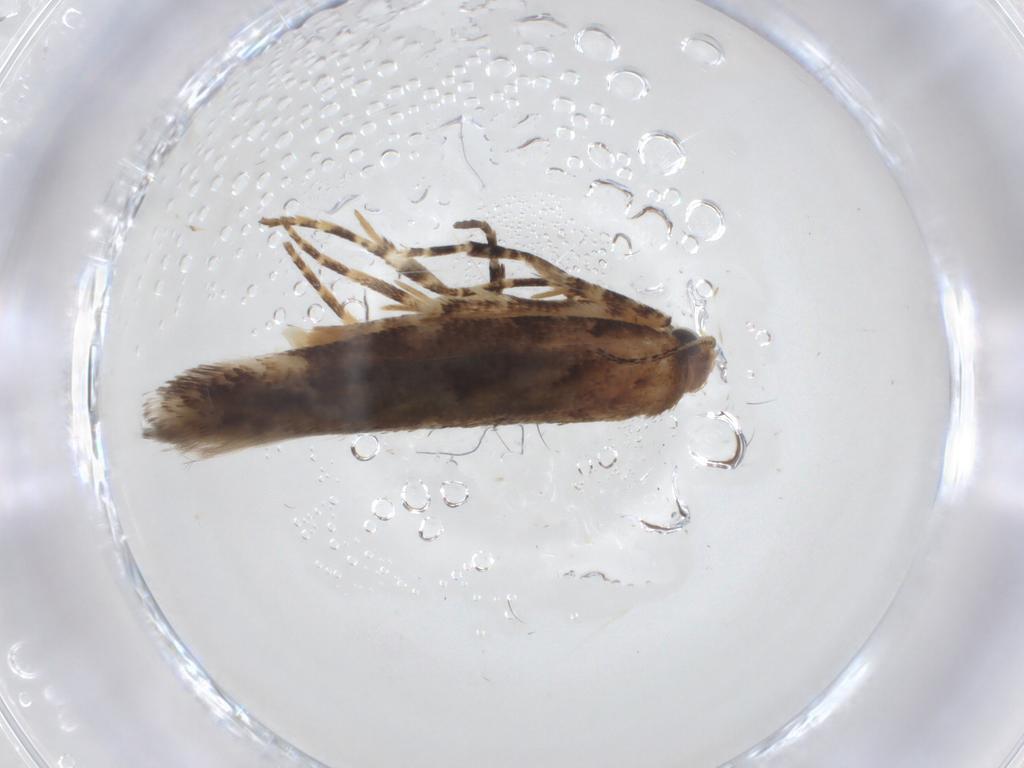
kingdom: Animalia
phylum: Arthropoda
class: Insecta
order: Lepidoptera
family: Gelechiidae
